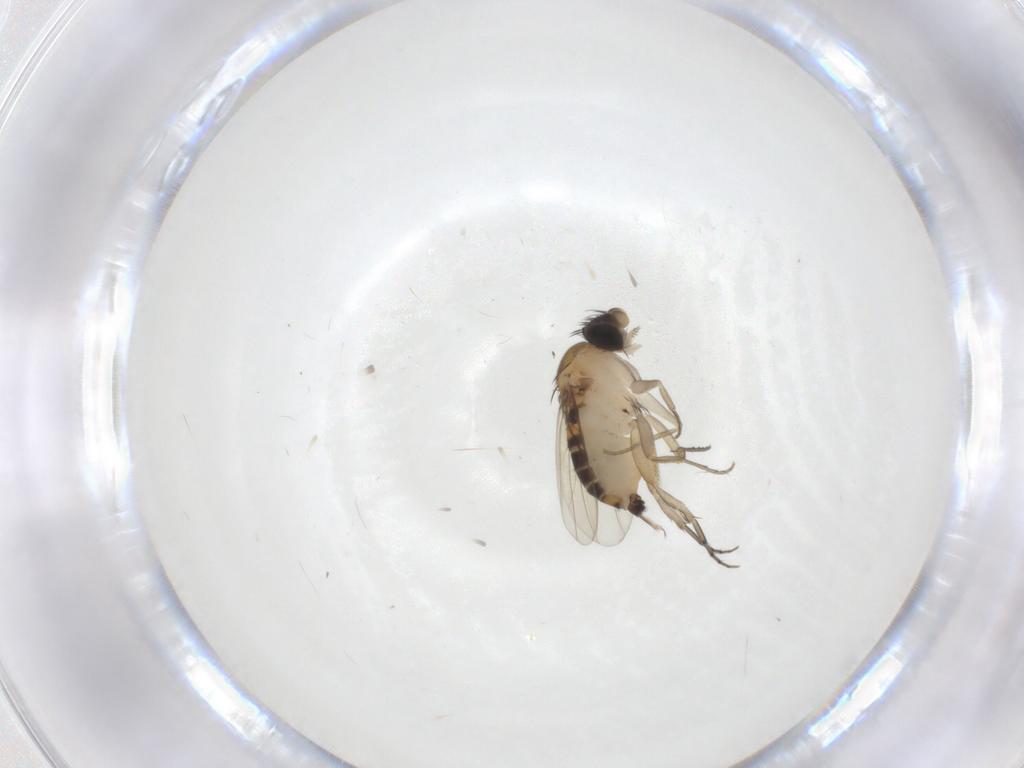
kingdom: Animalia
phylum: Arthropoda
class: Insecta
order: Diptera
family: Phoridae
